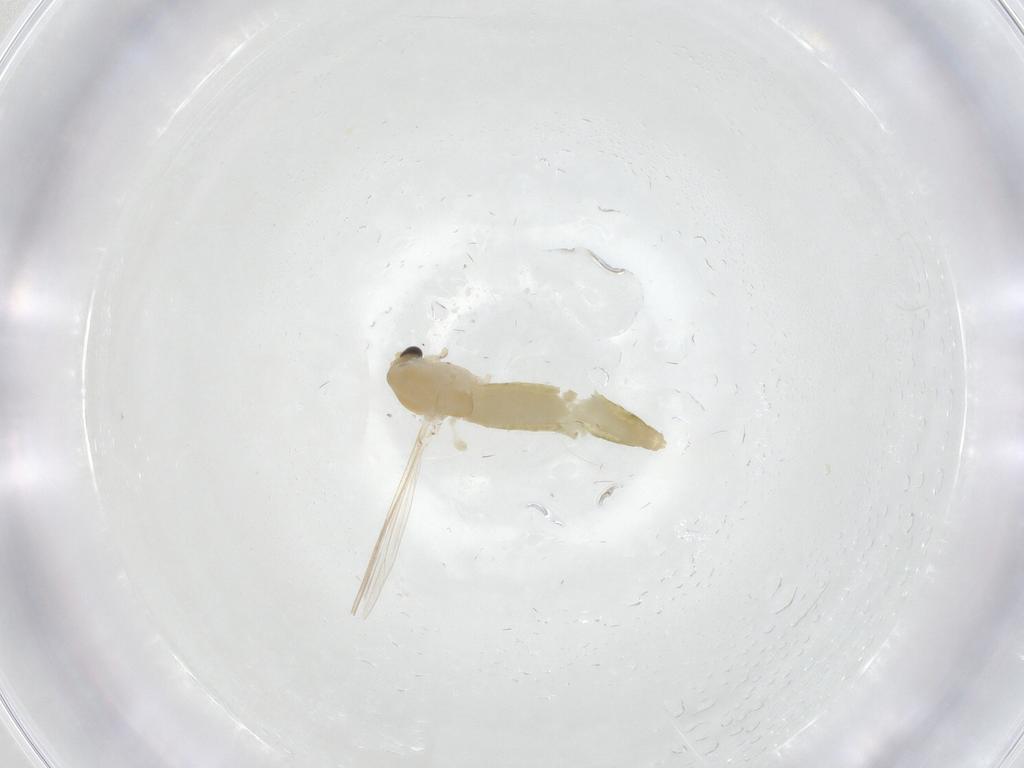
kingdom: Animalia
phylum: Arthropoda
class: Insecta
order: Diptera
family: Chironomidae
